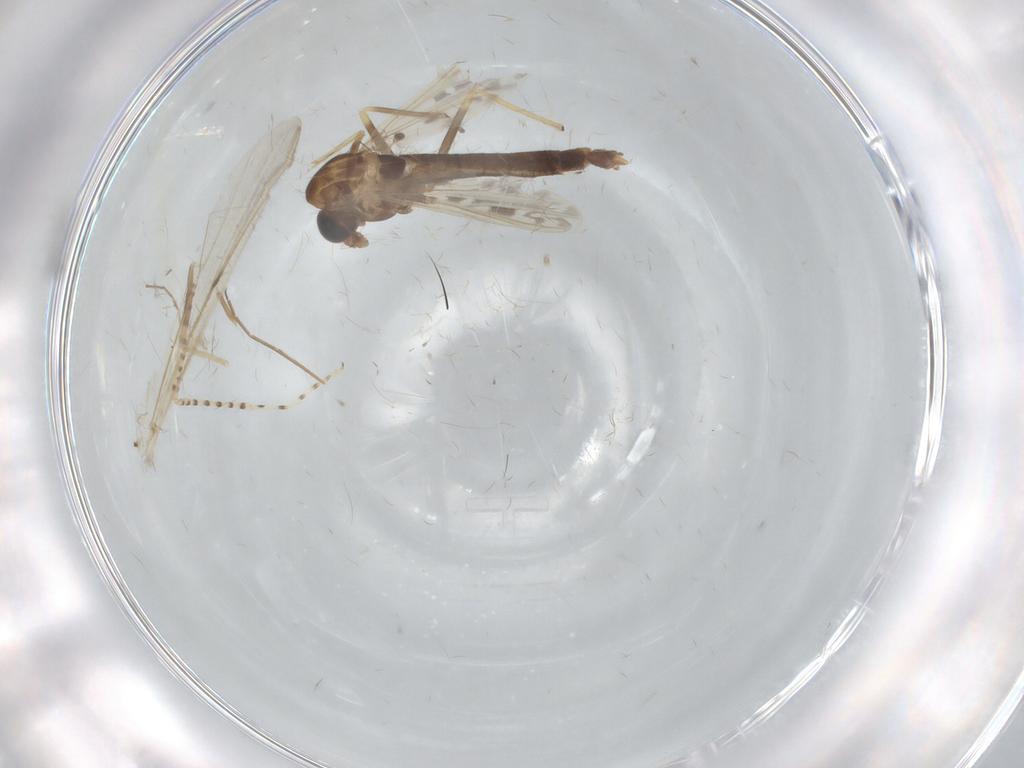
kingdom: Animalia
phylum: Arthropoda
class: Insecta
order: Diptera
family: Chironomidae
